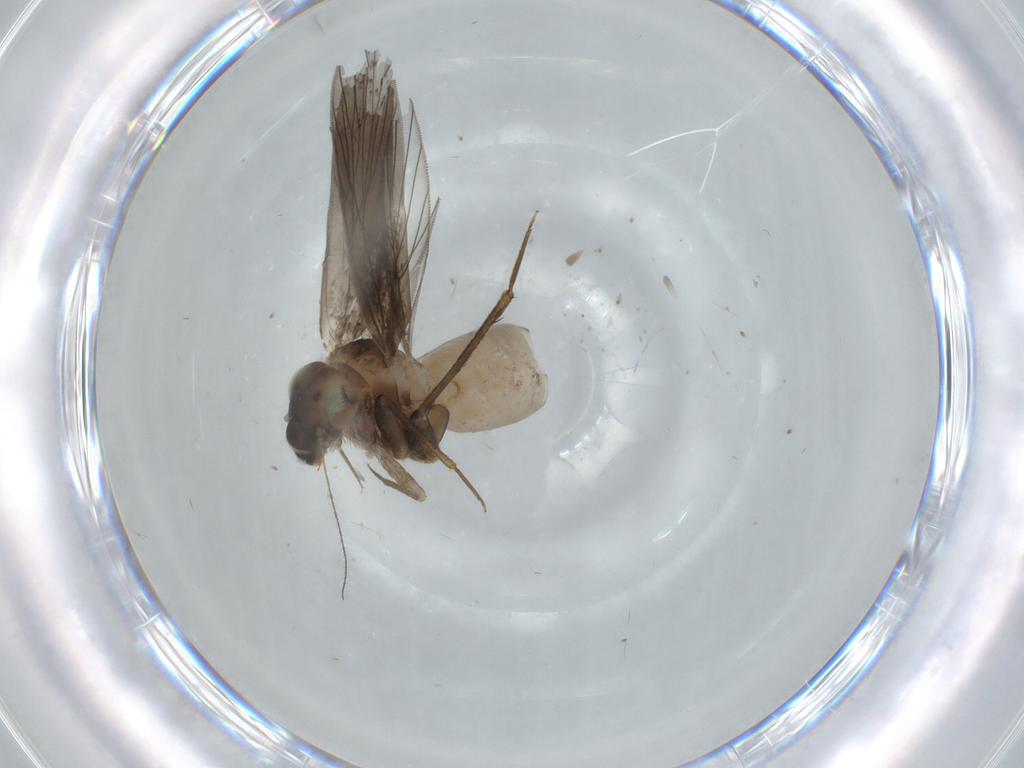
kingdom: Animalia
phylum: Arthropoda
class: Insecta
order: Psocodea
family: Lepidopsocidae
